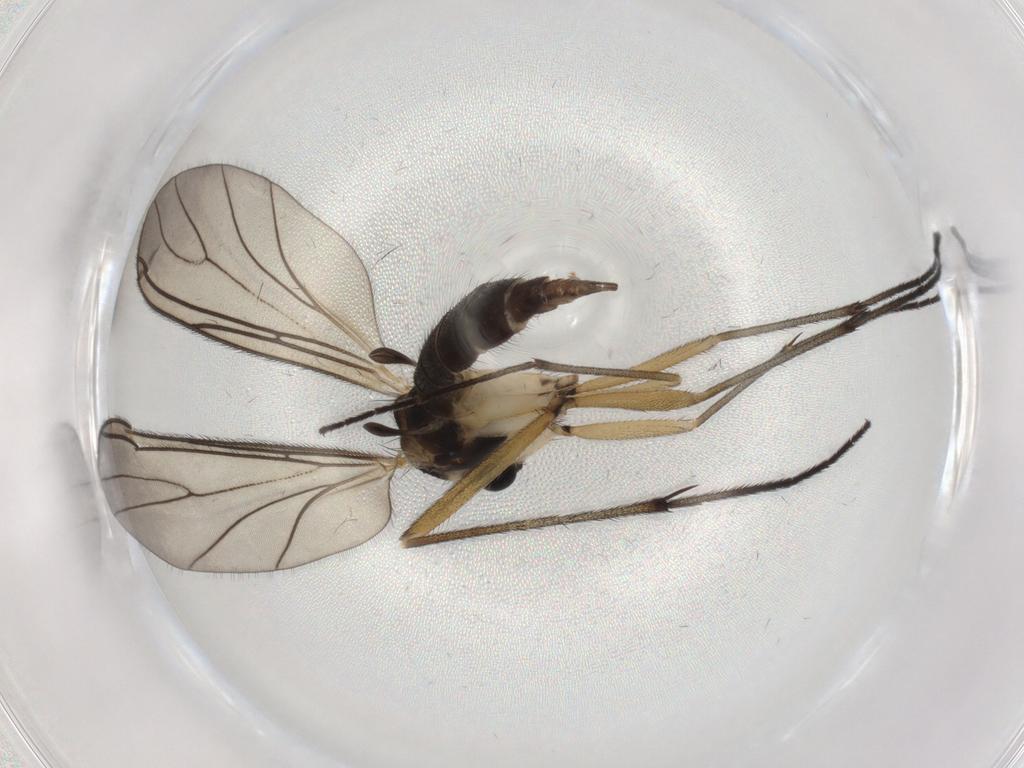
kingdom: Animalia
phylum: Arthropoda
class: Insecta
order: Diptera
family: Sciaridae
